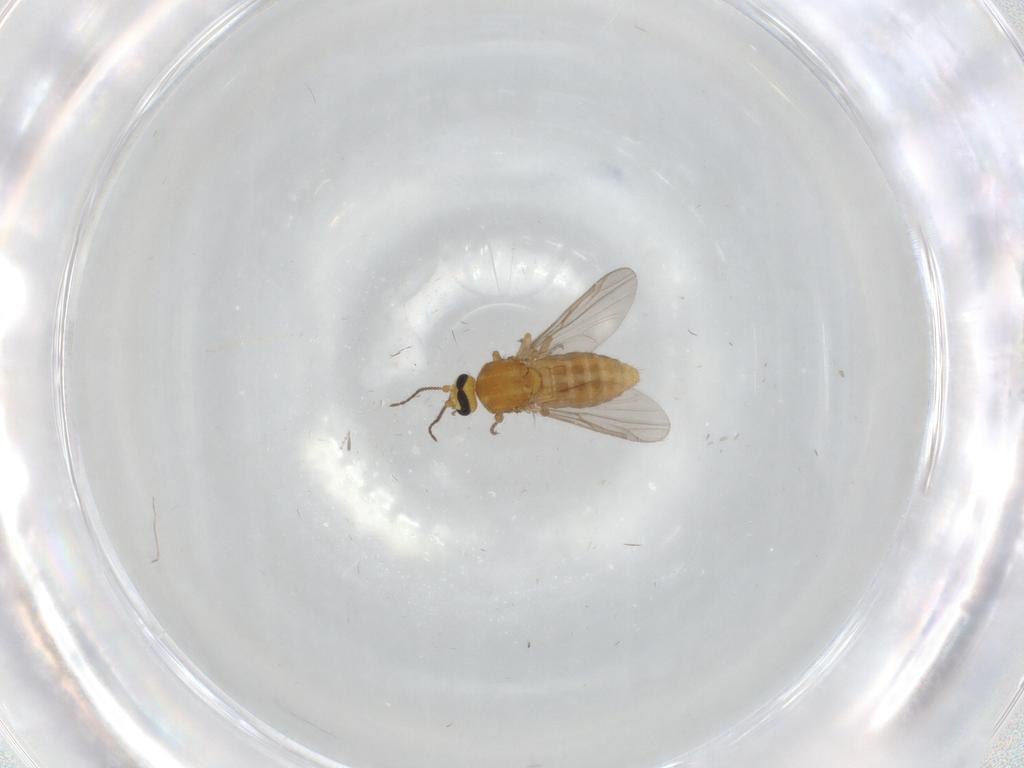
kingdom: Animalia
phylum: Arthropoda
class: Insecta
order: Diptera
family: Ceratopogonidae
